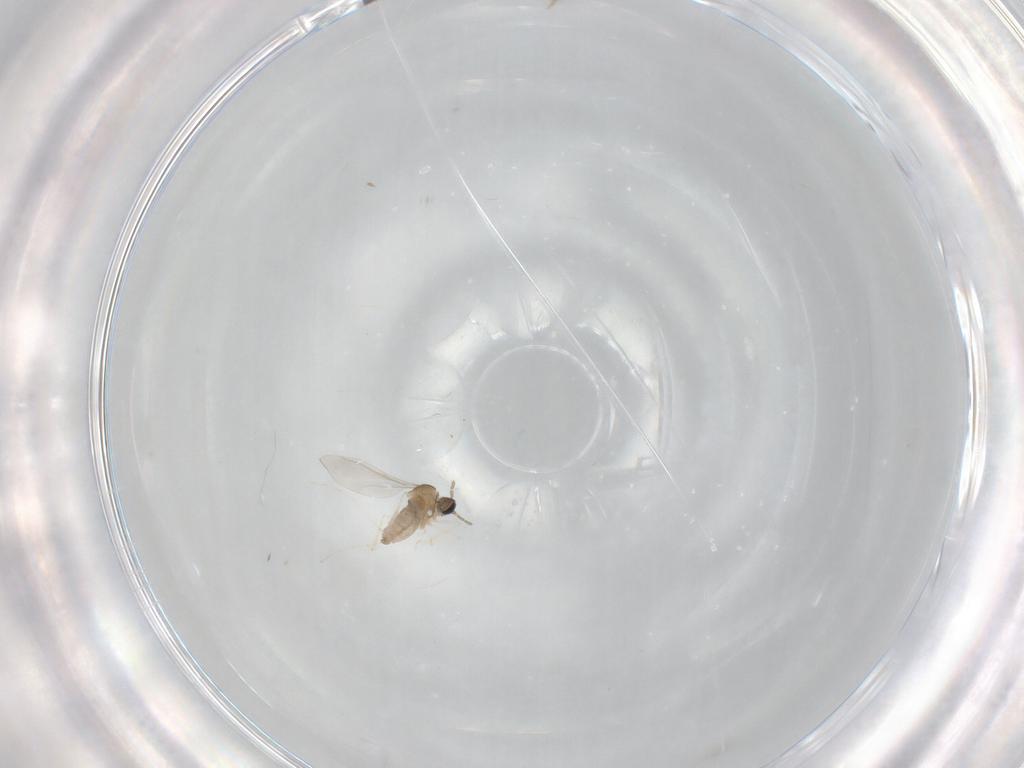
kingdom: Animalia
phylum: Arthropoda
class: Insecta
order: Diptera
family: Cecidomyiidae
